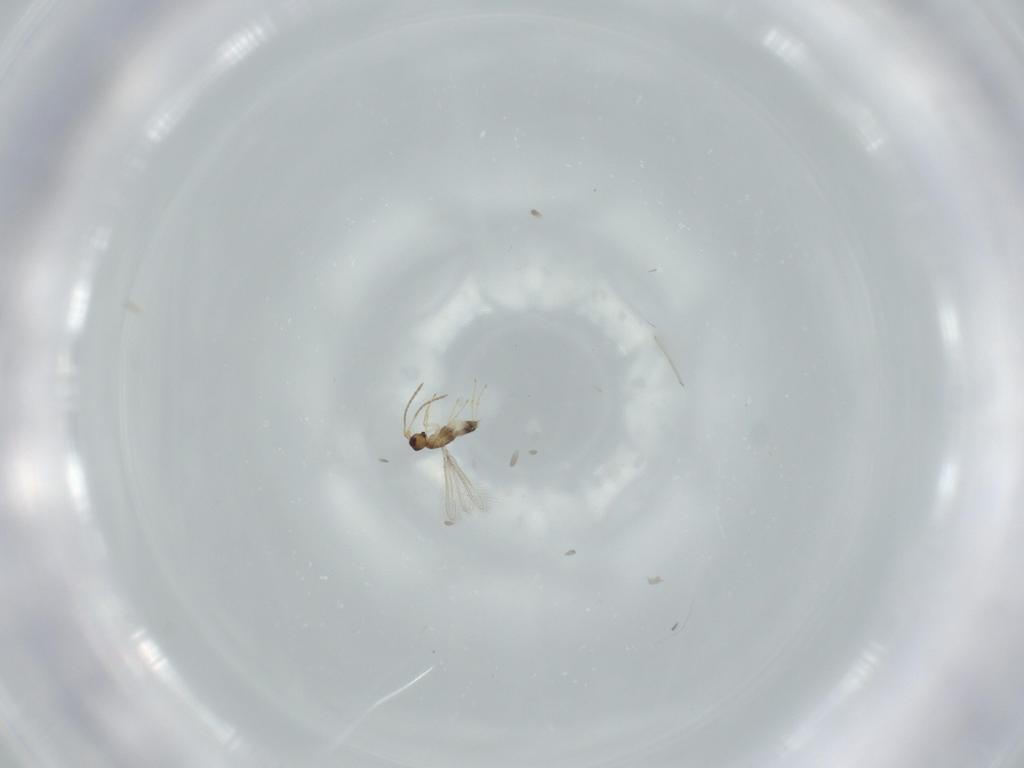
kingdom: Animalia
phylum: Arthropoda
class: Insecta
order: Hymenoptera
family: Mymaridae
